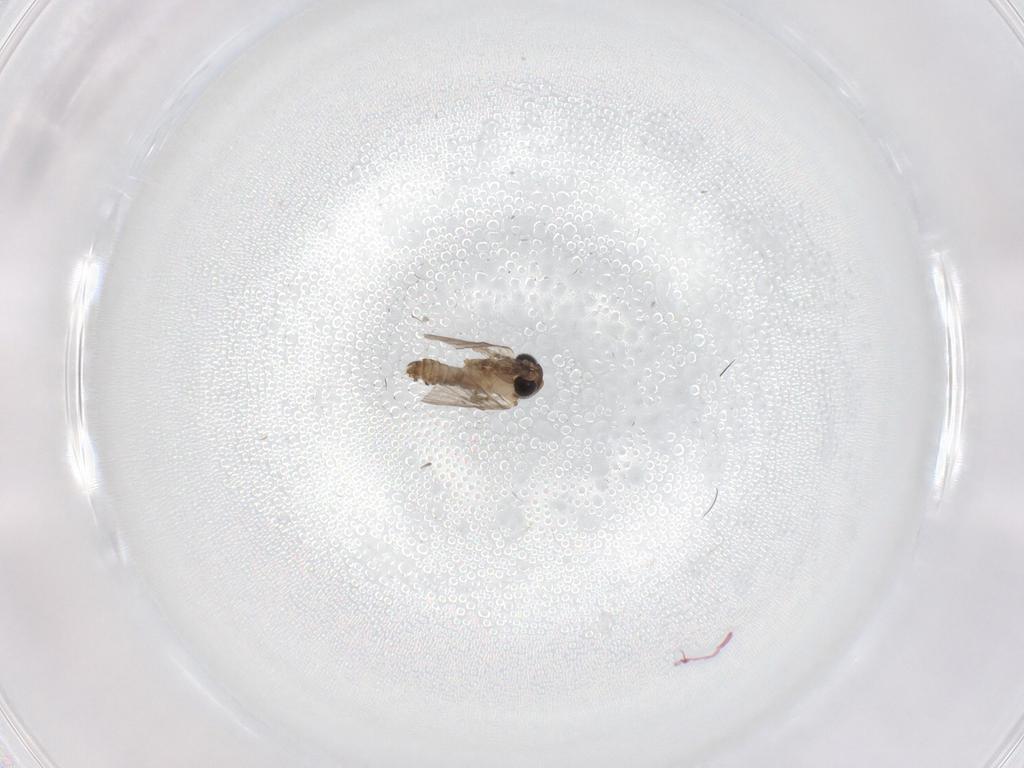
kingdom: Animalia
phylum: Arthropoda
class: Insecta
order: Diptera
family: Psychodidae
